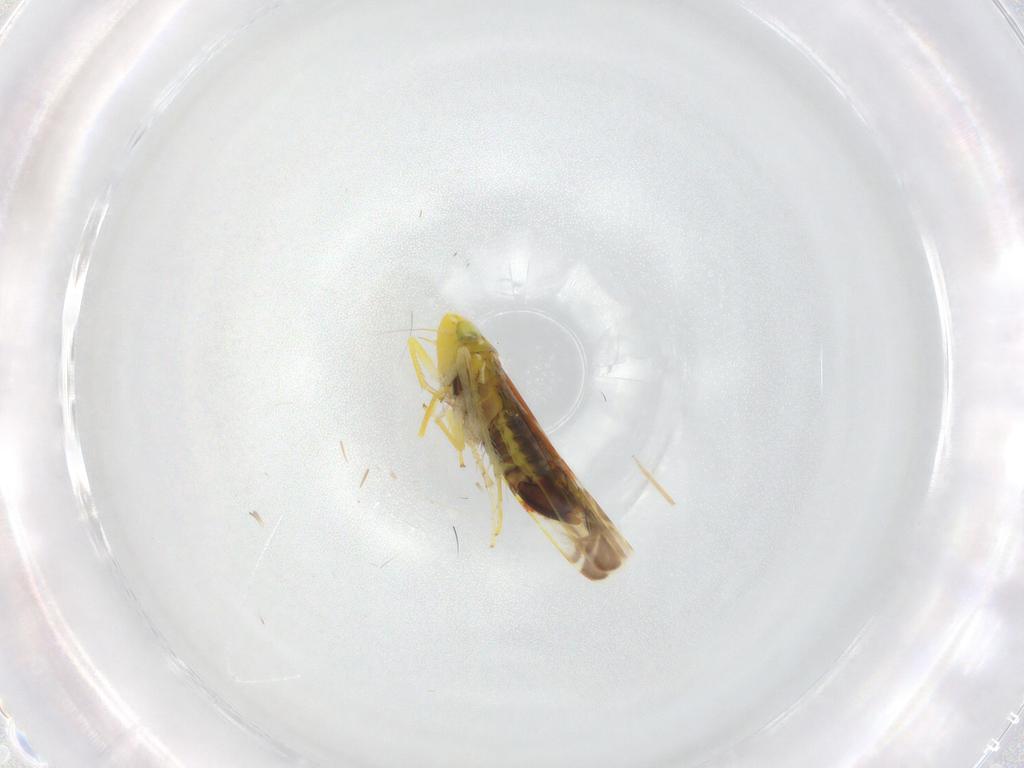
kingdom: Animalia
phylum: Arthropoda
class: Insecta
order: Hemiptera
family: Cicadellidae
